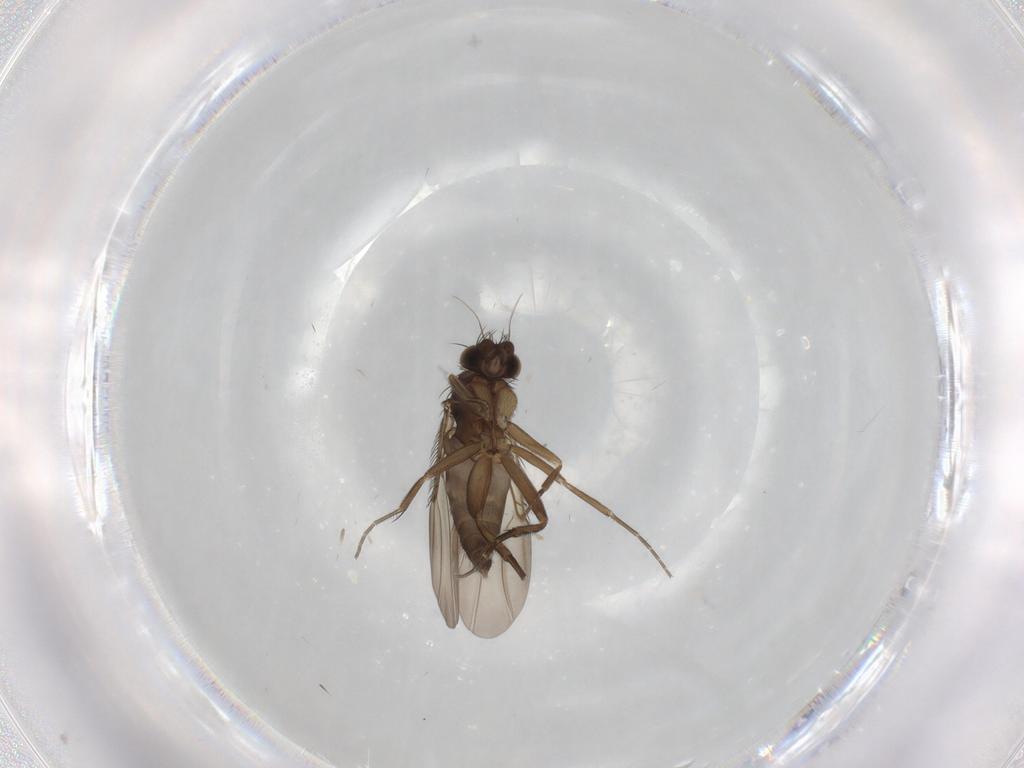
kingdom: Animalia
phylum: Arthropoda
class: Insecta
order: Diptera
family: Phoridae
